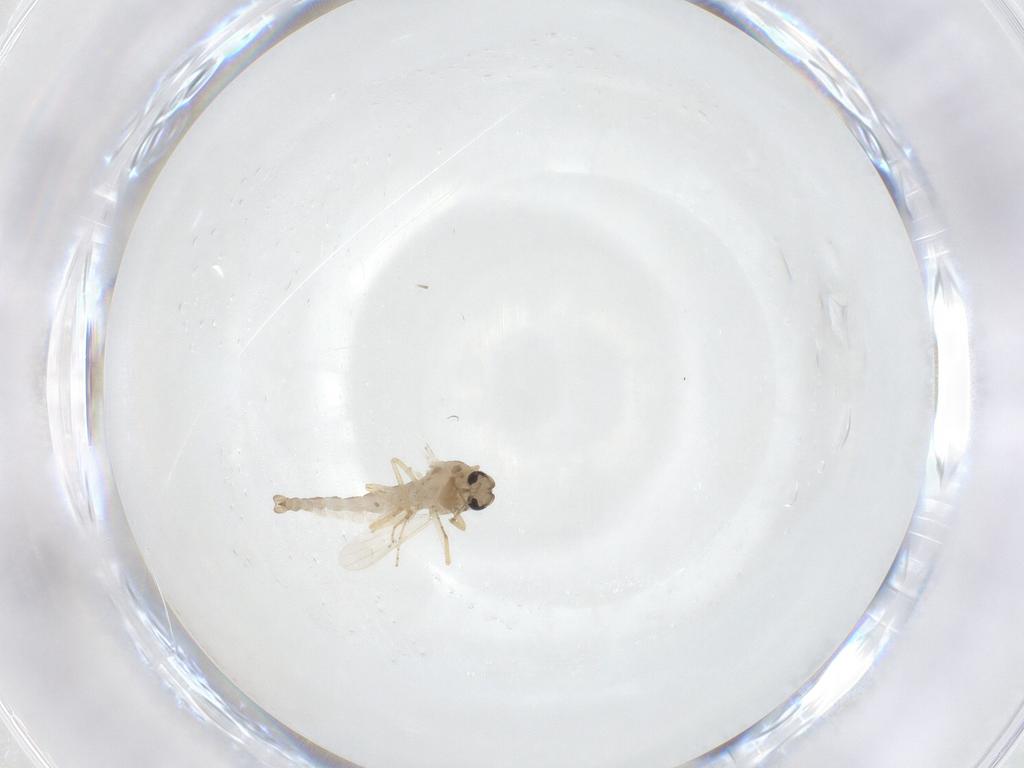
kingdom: Animalia
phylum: Arthropoda
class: Insecta
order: Diptera
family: Ceratopogonidae
